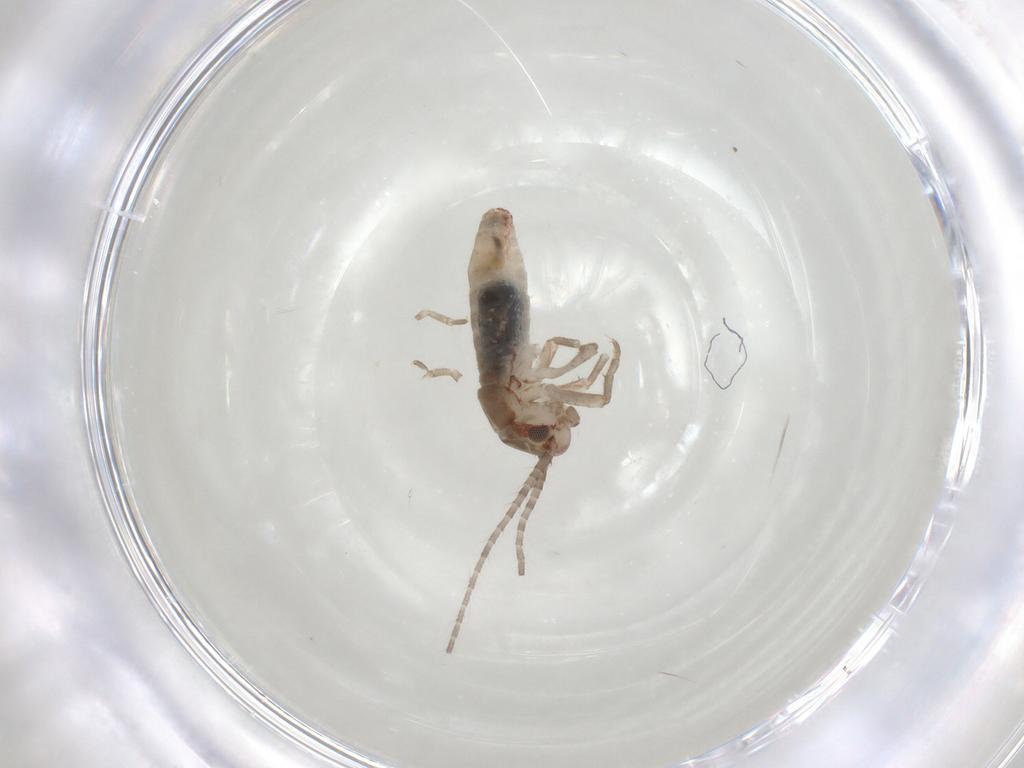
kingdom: Animalia
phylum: Arthropoda
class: Insecta
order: Orthoptera
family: Mogoplistidae
